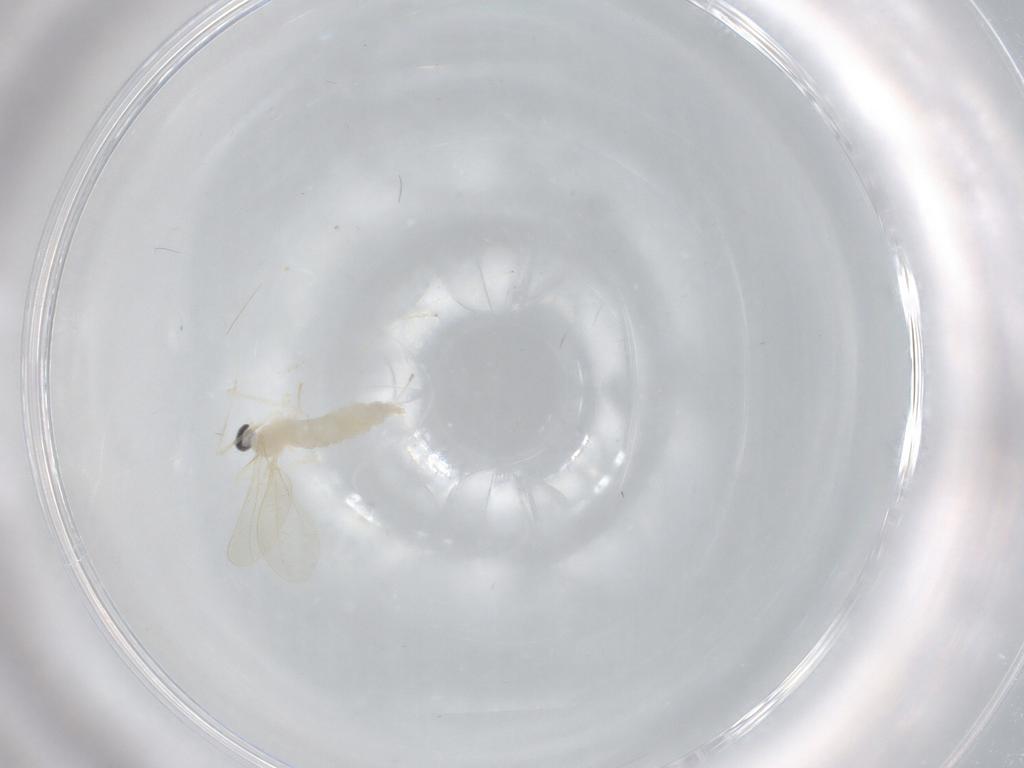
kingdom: Animalia
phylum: Arthropoda
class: Insecta
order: Diptera
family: Cecidomyiidae
